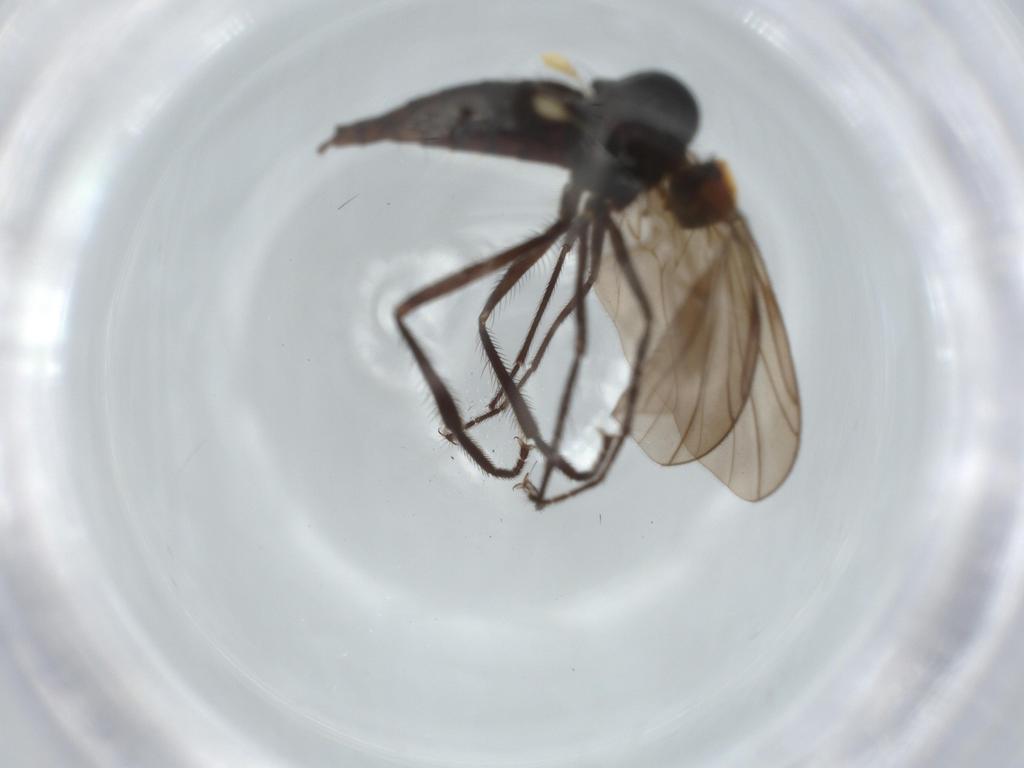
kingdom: Animalia
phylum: Arthropoda
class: Insecta
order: Diptera
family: Hybotidae
